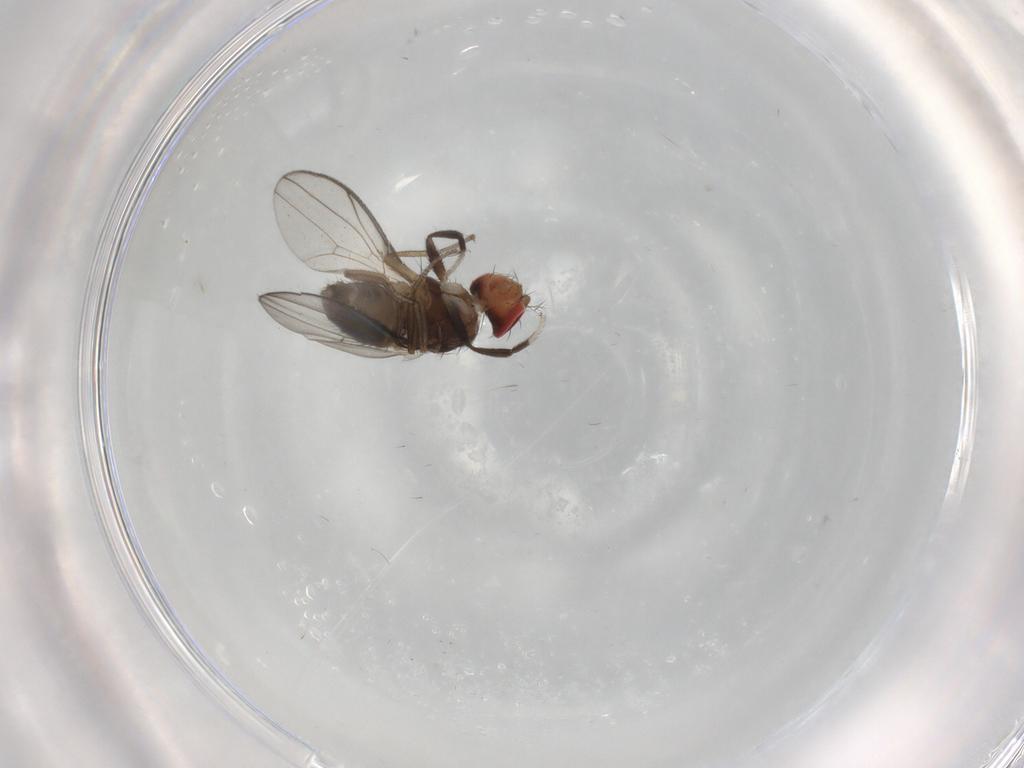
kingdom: Animalia
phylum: Arthropoda
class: Insecta
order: Diptera
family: Drosophilidae
